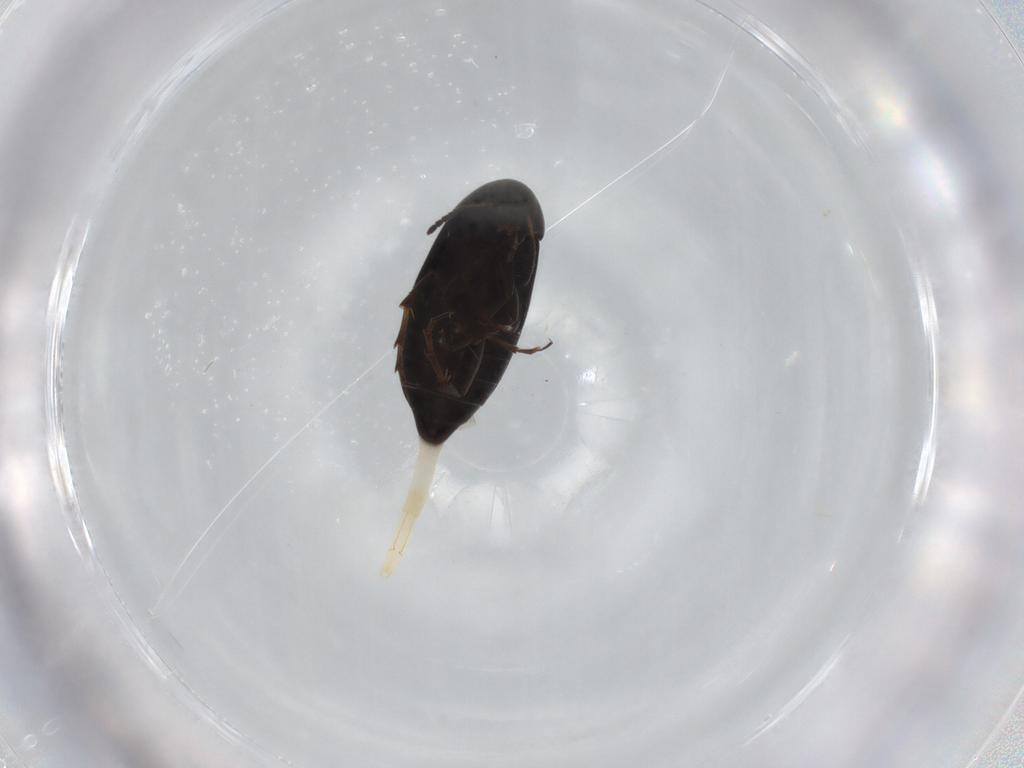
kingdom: Animalia
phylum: Arthropoda
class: Insecta
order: Coleoptera
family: Scraptiidae
